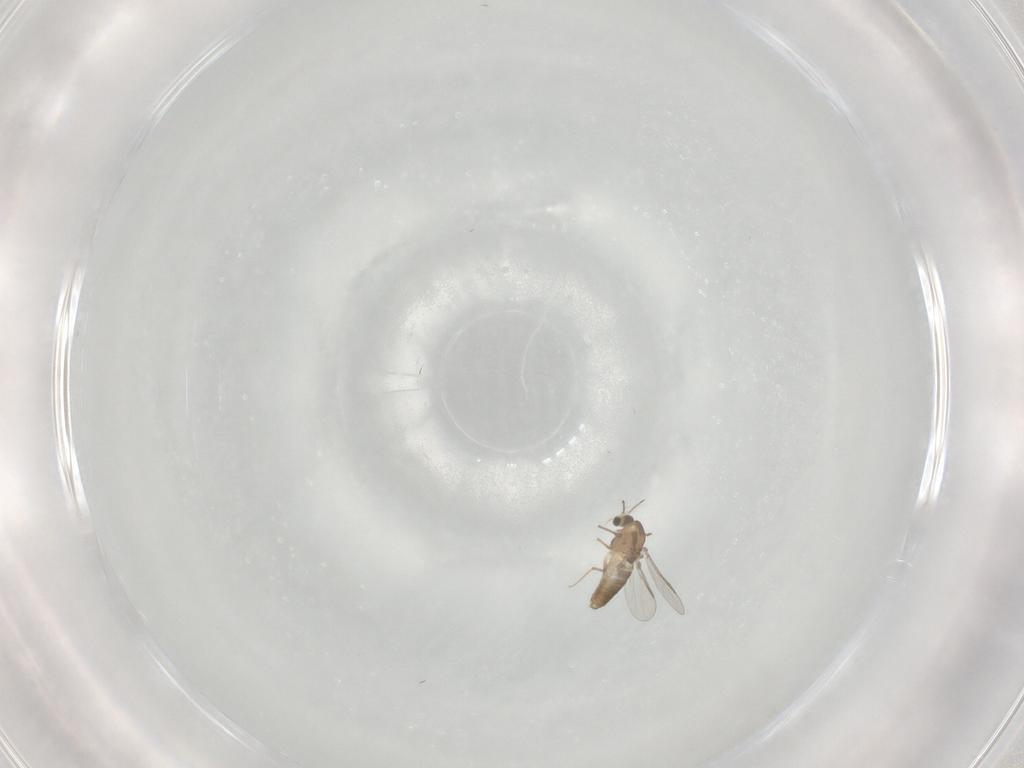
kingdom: Animalia
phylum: Arthropoda
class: Insecta
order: Diptera
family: Chironomidae
